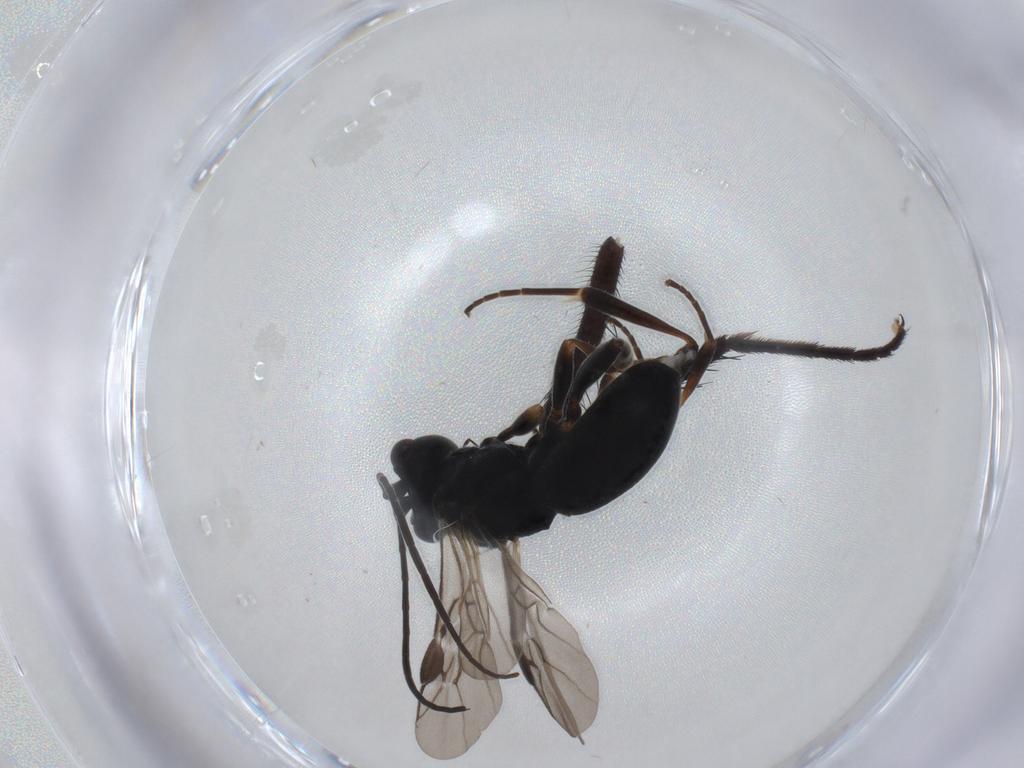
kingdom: Animalia
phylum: Arthropoda
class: Insecta
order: Hymenoptera
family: Braconidae
